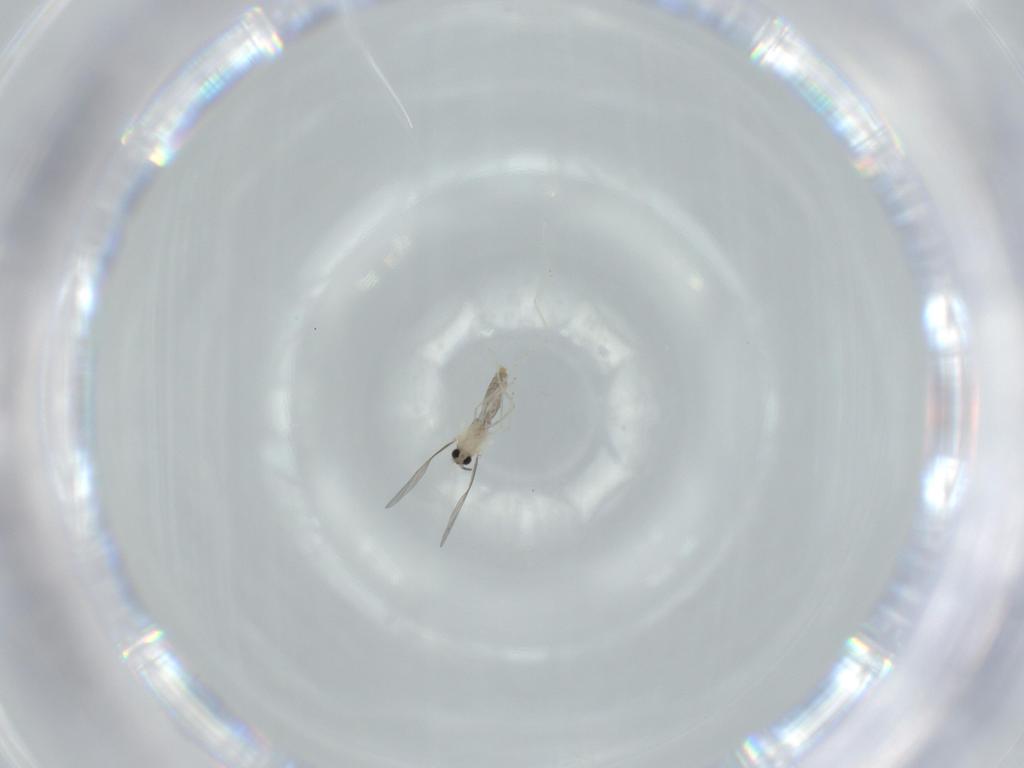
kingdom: Animalia
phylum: Arthropoda
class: Insecta
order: Diptera
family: Cecidomyiidae
